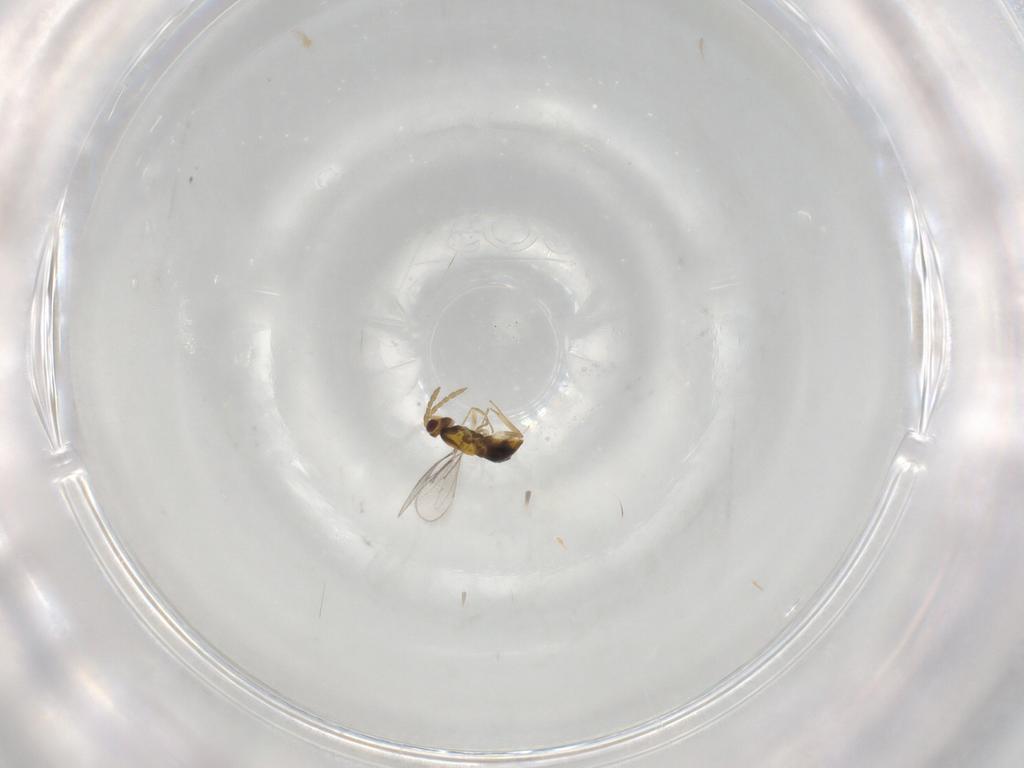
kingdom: Animalia
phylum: Arthropoda
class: Insecta
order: Hymenoptera
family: Aphelinidae
